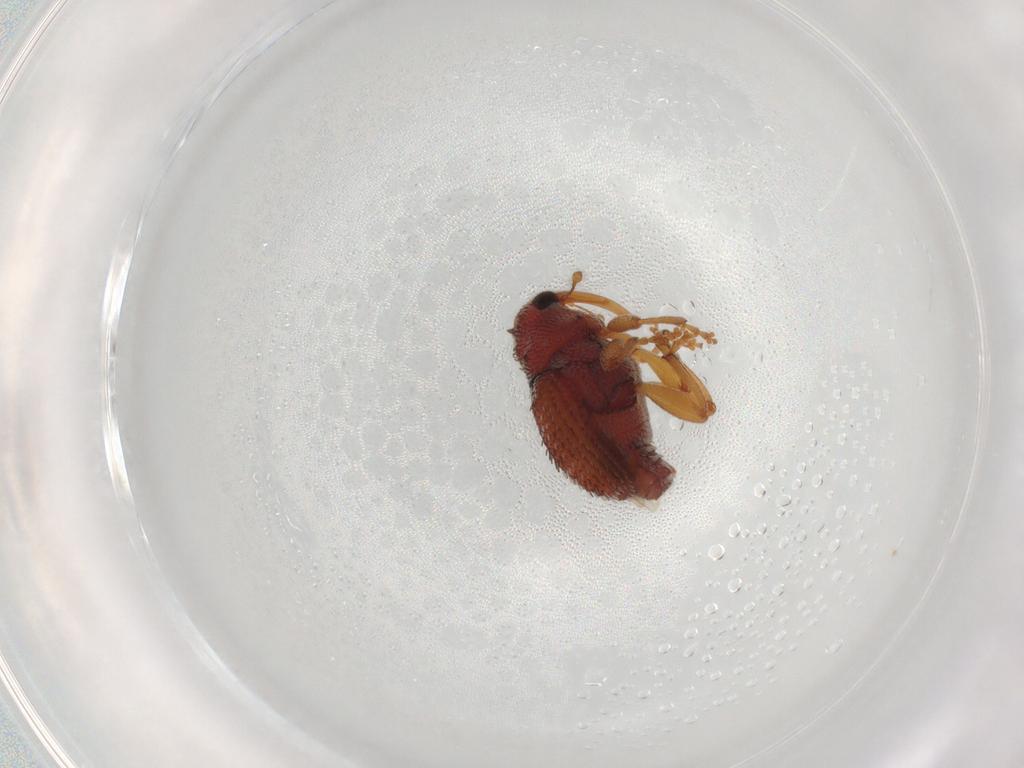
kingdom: Animalia
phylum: Arthropoda
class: Insecta
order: Coleoptera
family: Curculionidae
